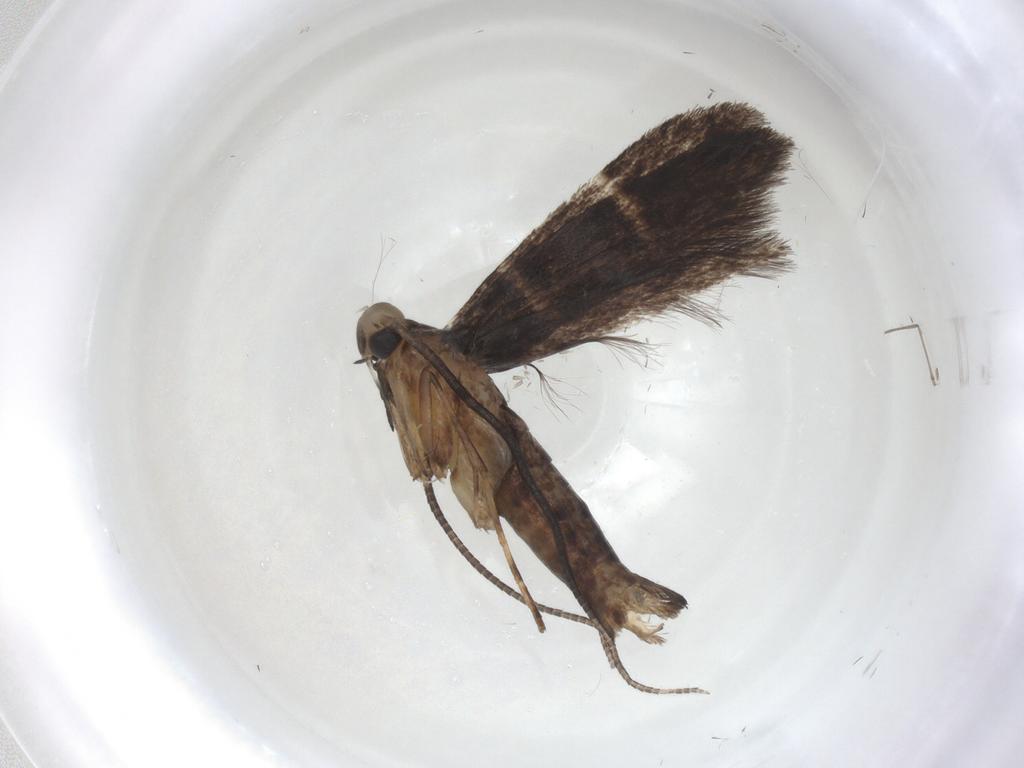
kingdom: Animalia
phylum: Arthropoda
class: Insecta
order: Lepidoptera
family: Gracillariidae
